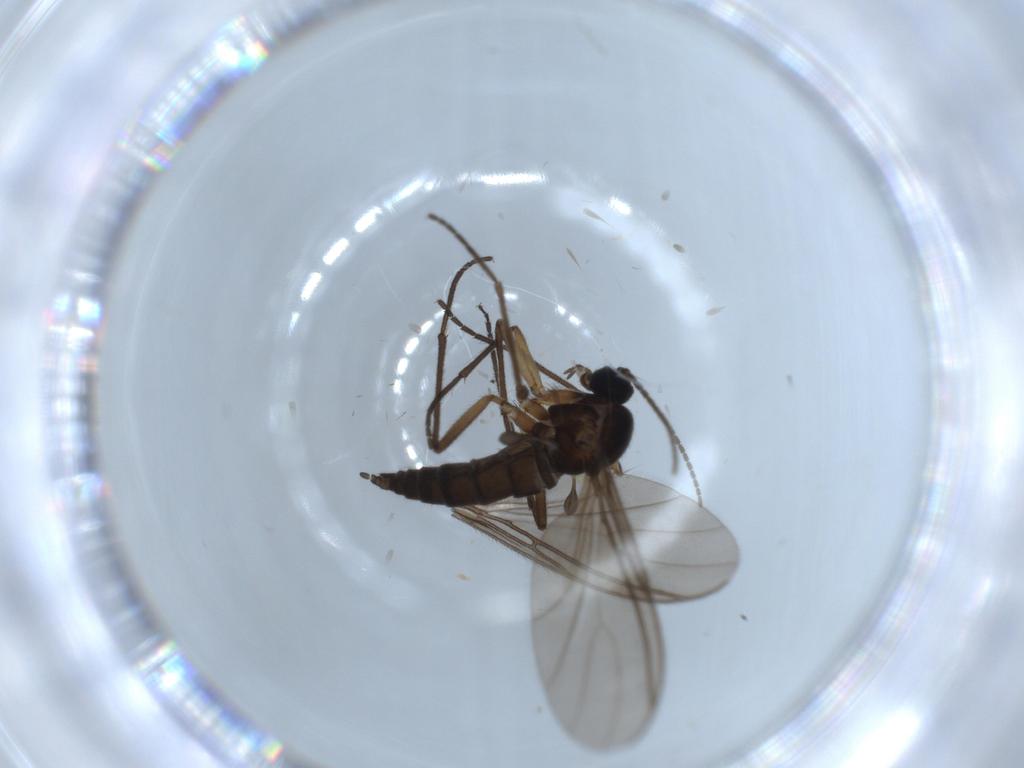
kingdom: Animalia
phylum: Arthropoda
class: Insecta
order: Diptera
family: Sciaridae
